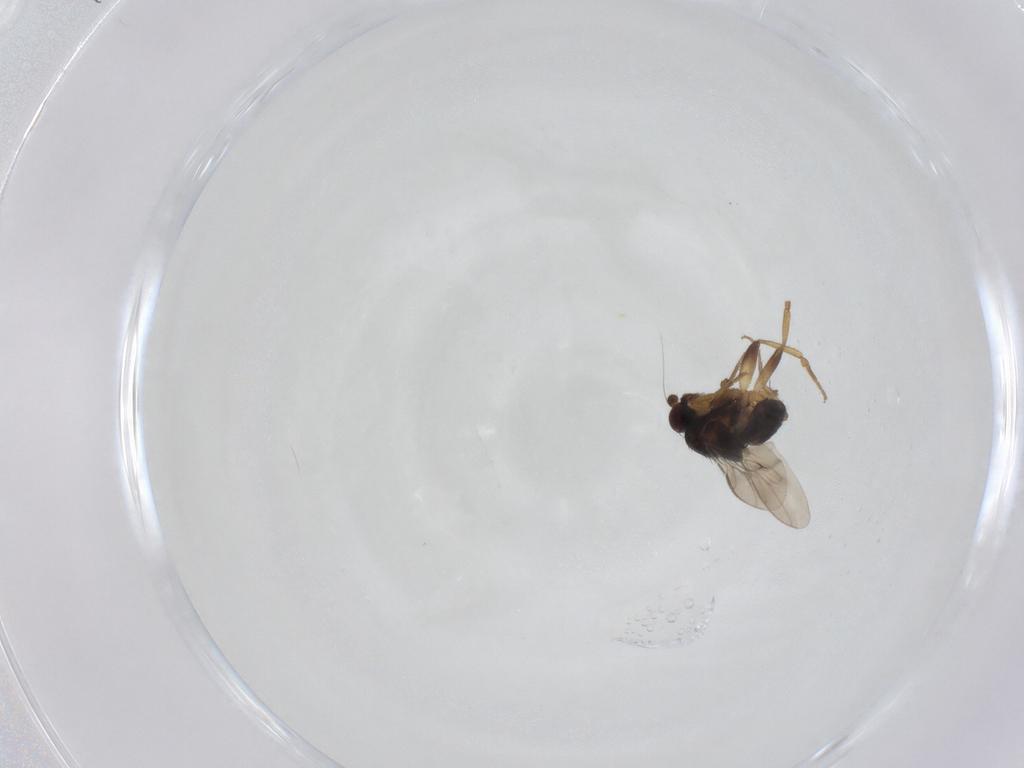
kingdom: Animalia
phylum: Arthropoda
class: Insecta
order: Diptera
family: Sphaeroceridae
